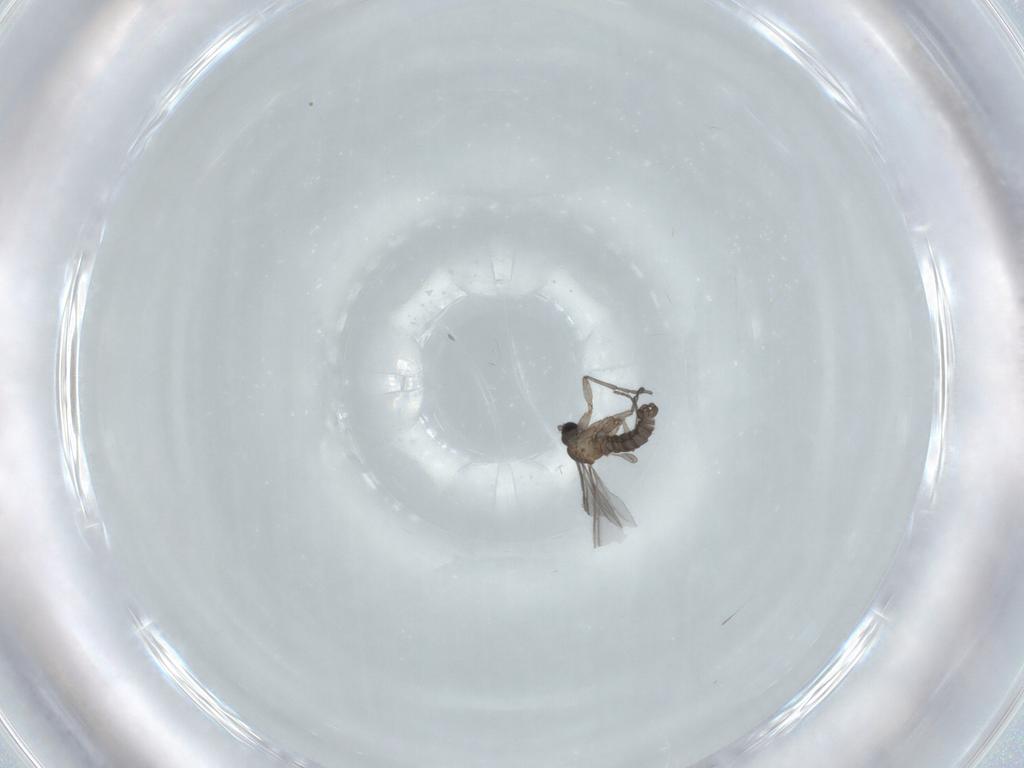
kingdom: Animalia
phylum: Arthropoda
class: Insecta
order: Diptera
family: Sciaridae
